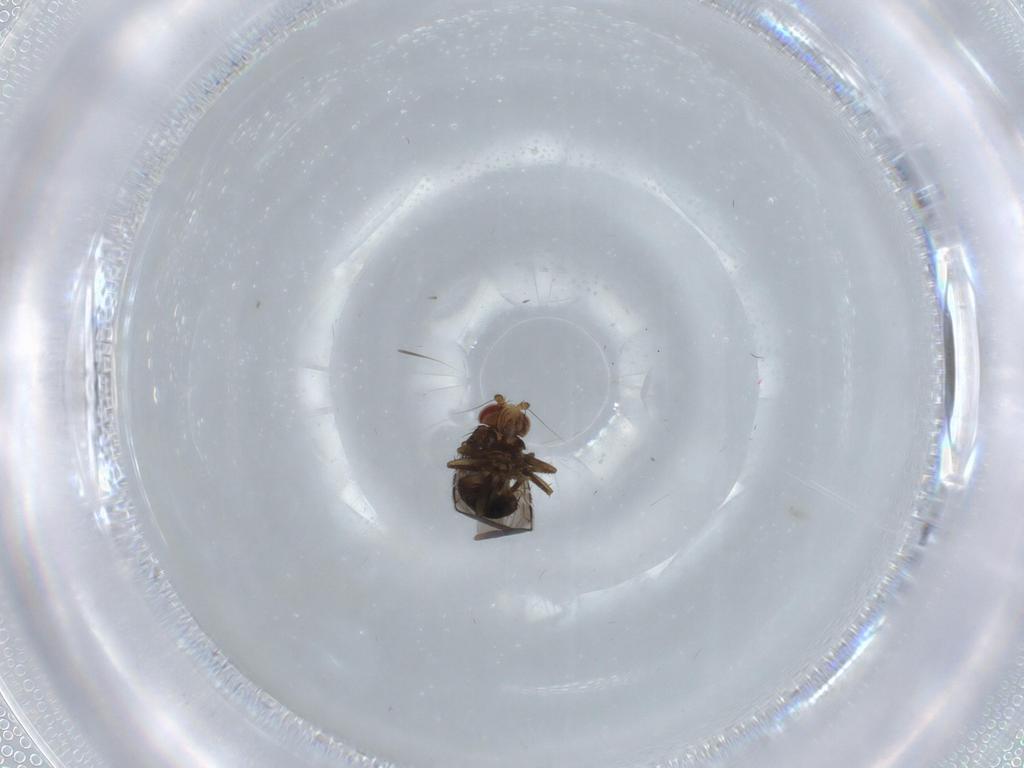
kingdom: Animalia
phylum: Arthropoda
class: Insecta
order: Diptera
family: Sphaeroceridae
